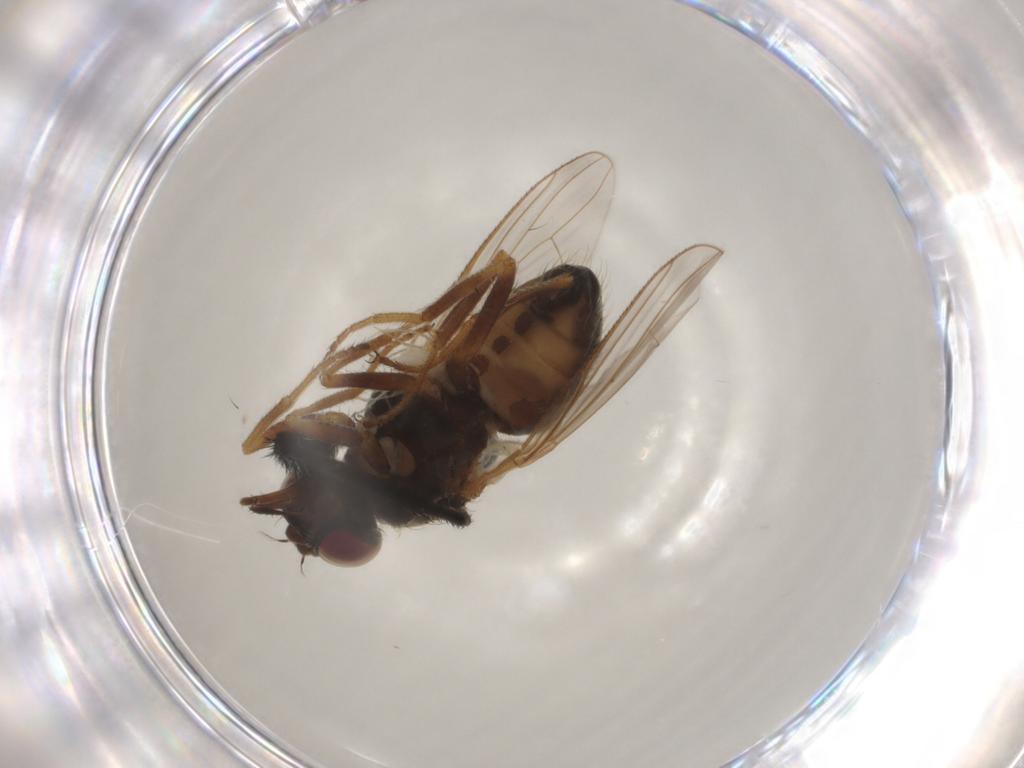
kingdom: Animalia
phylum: Arthropoda
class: Insecta
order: Diptera
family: Muscidae
